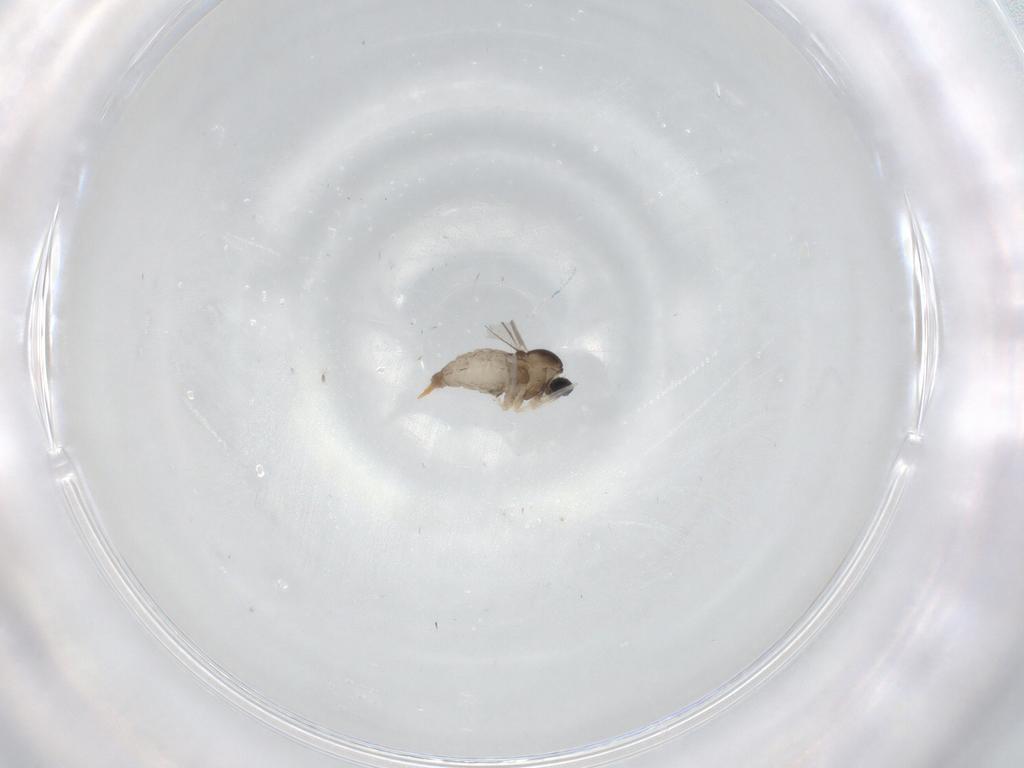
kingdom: Animalia
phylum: Arthropoda
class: Insecta
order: Diptera
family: Cecidomyiidae
